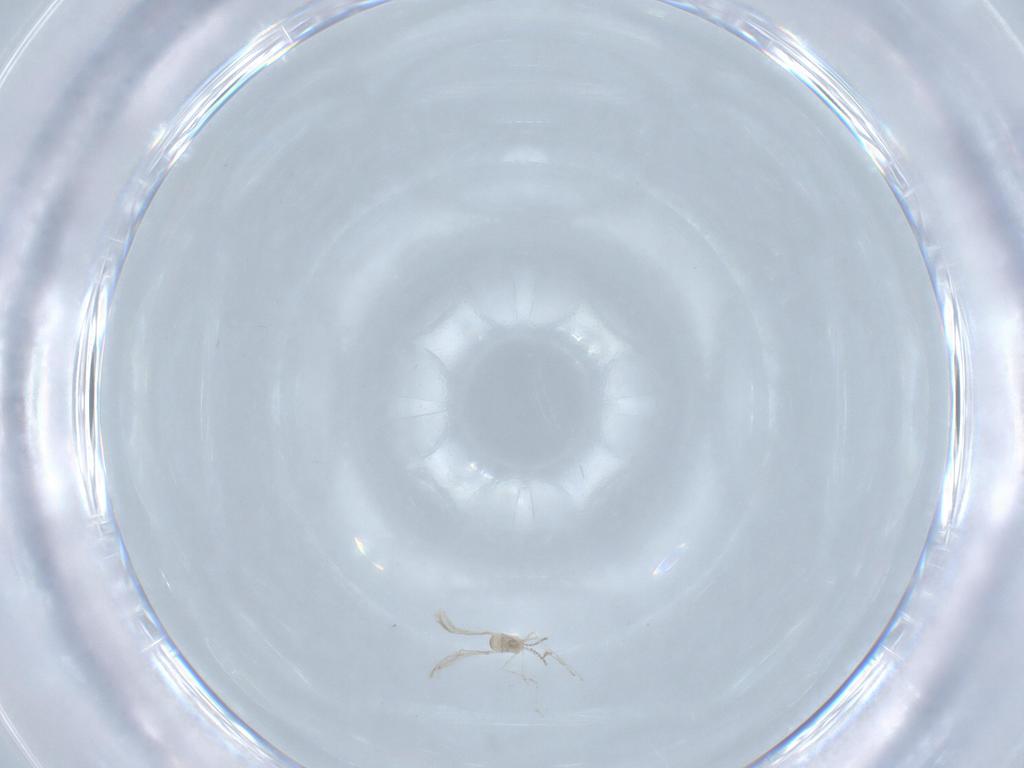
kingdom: Animalia
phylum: Arthropoda
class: Insecta
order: Diptera
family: Cecidomyiidae
